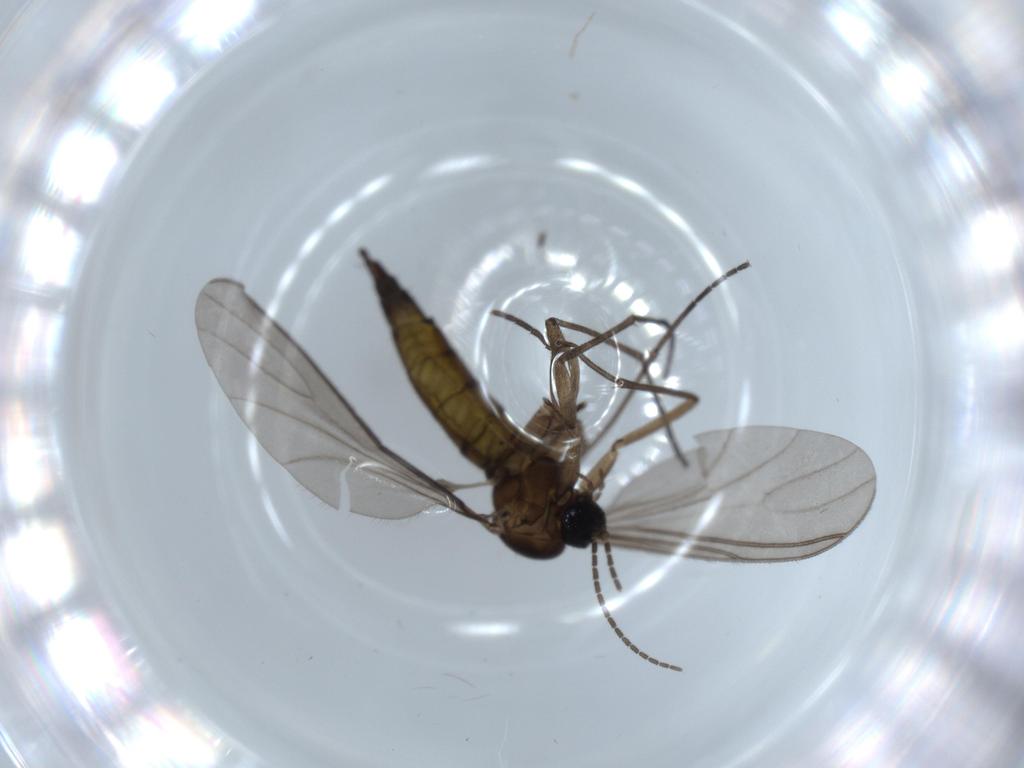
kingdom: Animalia
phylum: Arthropoda
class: Insecta
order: Diptera
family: Sciaridae
